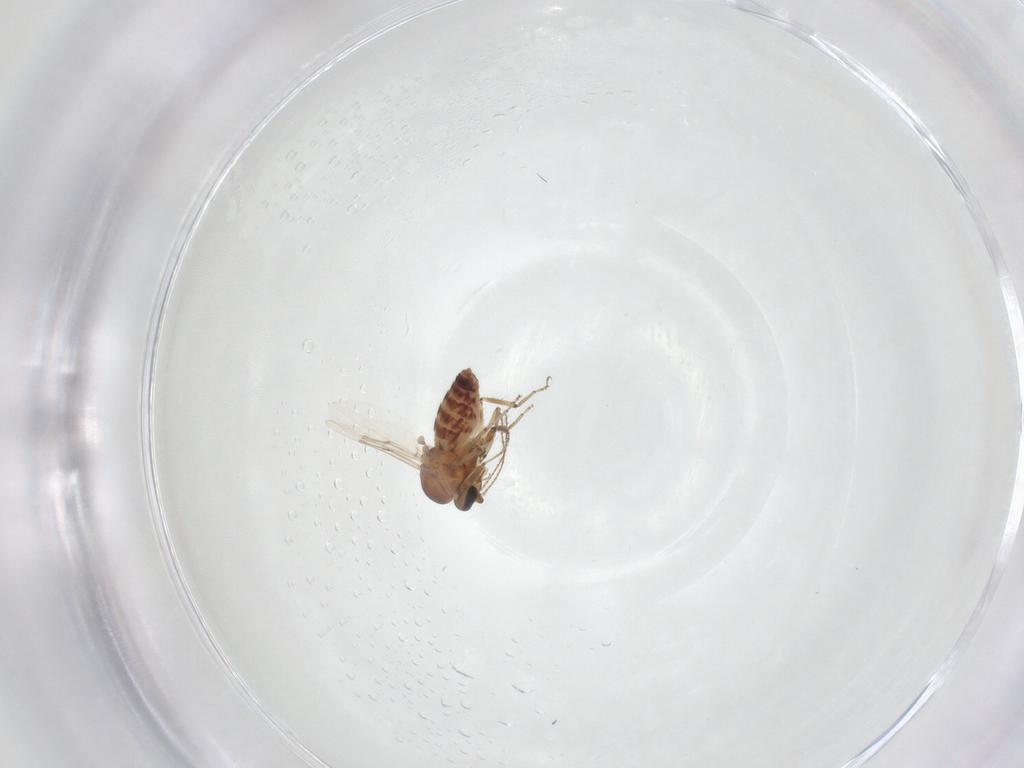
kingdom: Animalia
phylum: Arthropoda
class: Insecta
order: Diptera
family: Ceratopogonidae
